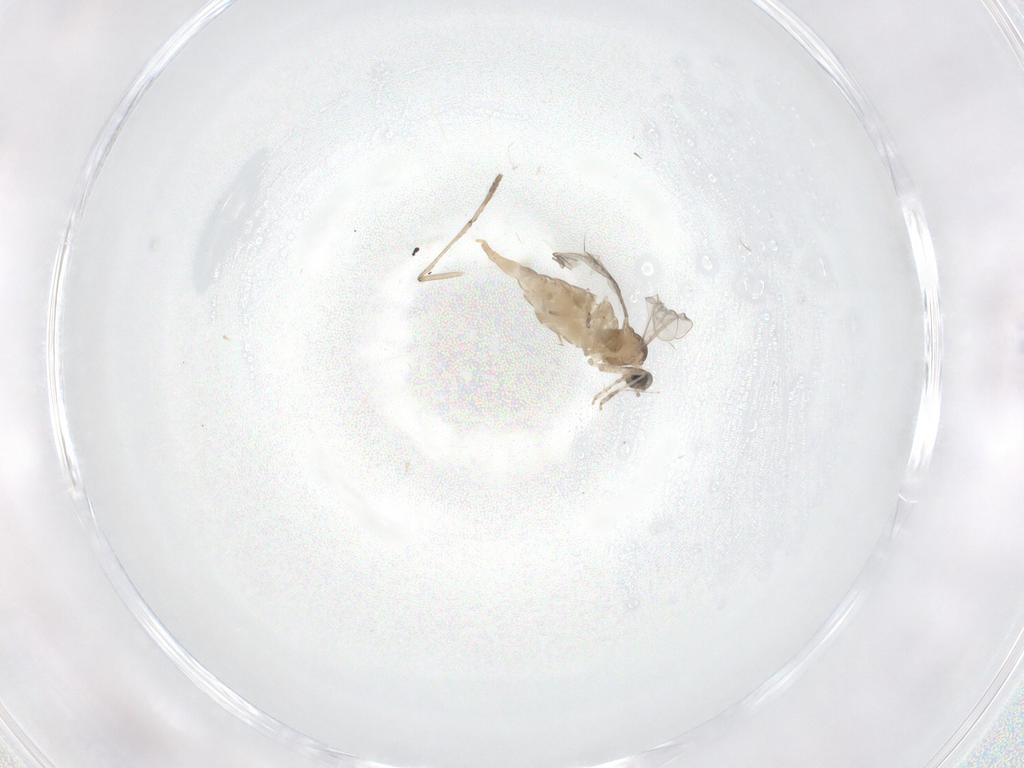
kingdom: Animalia
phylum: Arthropoda
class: Insecta
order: Diptera
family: Psychodidae
